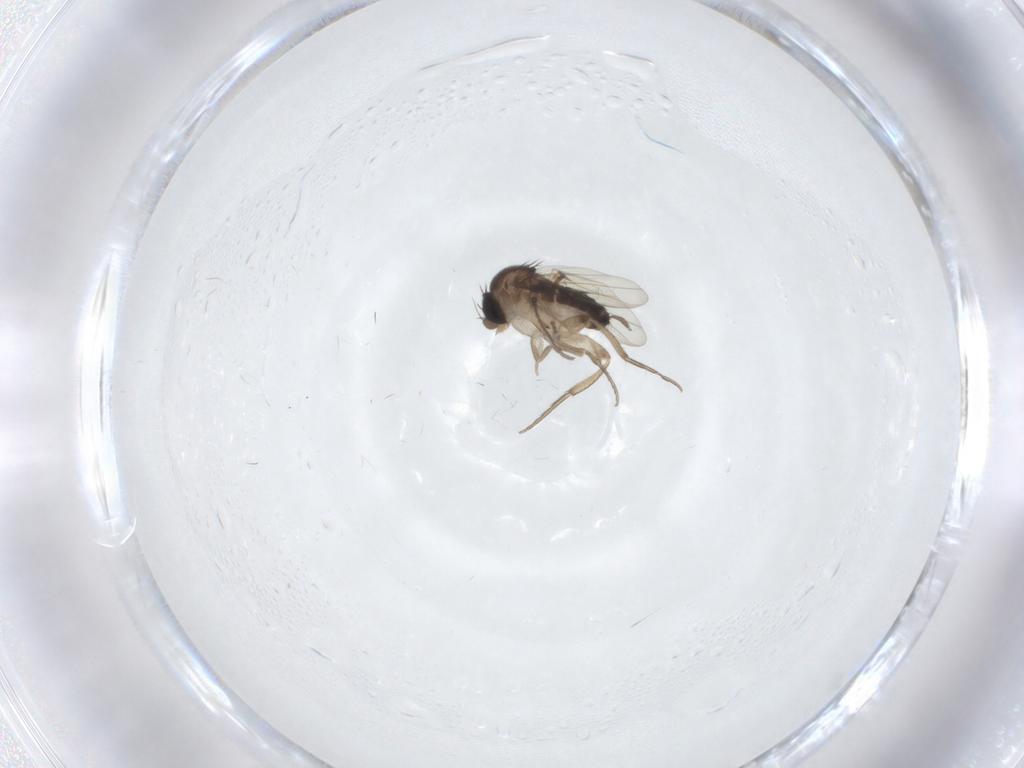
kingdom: Animalia
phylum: Arthropoda
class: Insecta
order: Diptera
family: Limoniidae
